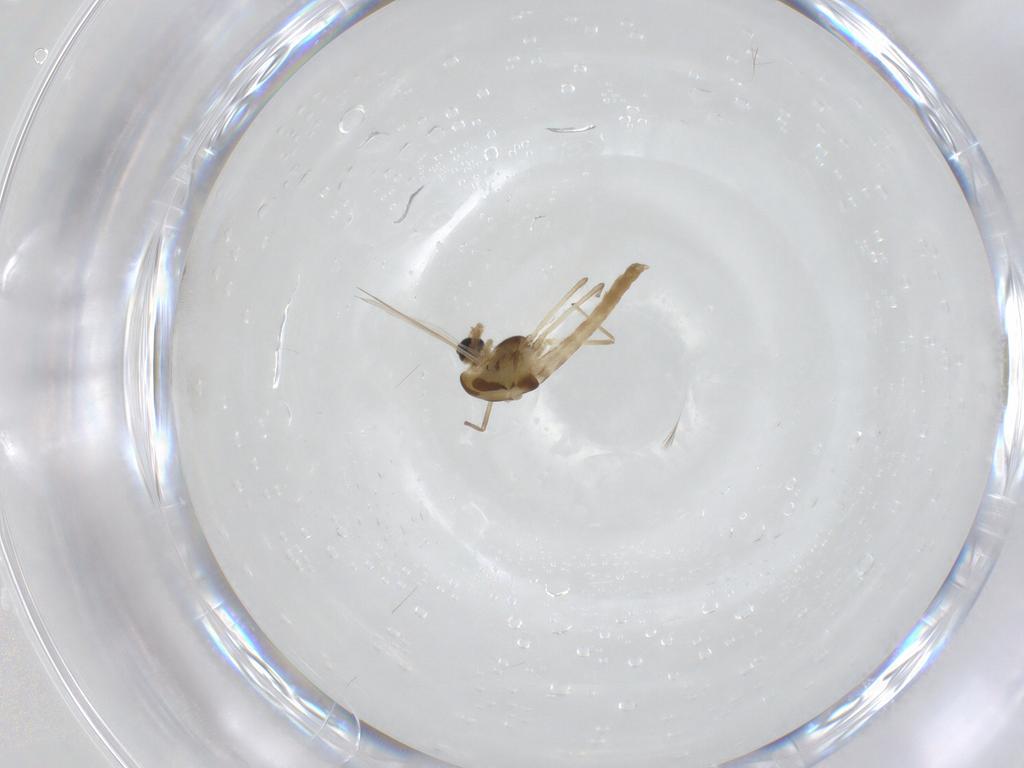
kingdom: Animalia
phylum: Arthropoda
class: Insecta
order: Diptera
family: Chironomidae
